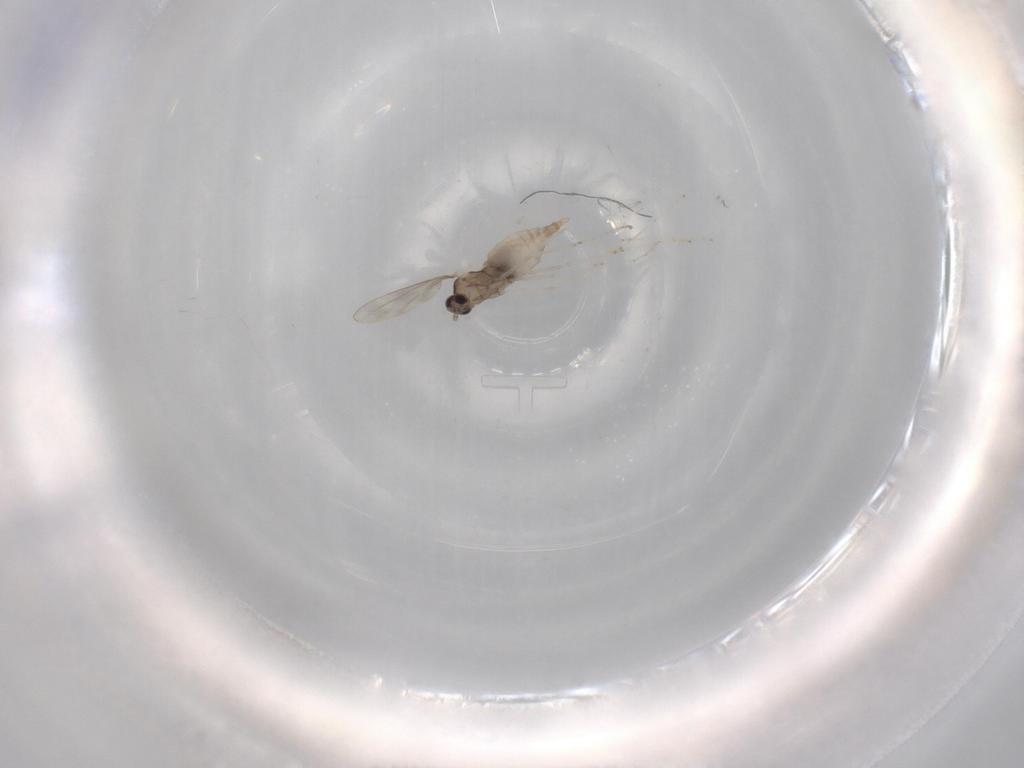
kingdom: Animalia
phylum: Arthropoda
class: Insecta
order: Diptera
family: Cecidomyiidae
